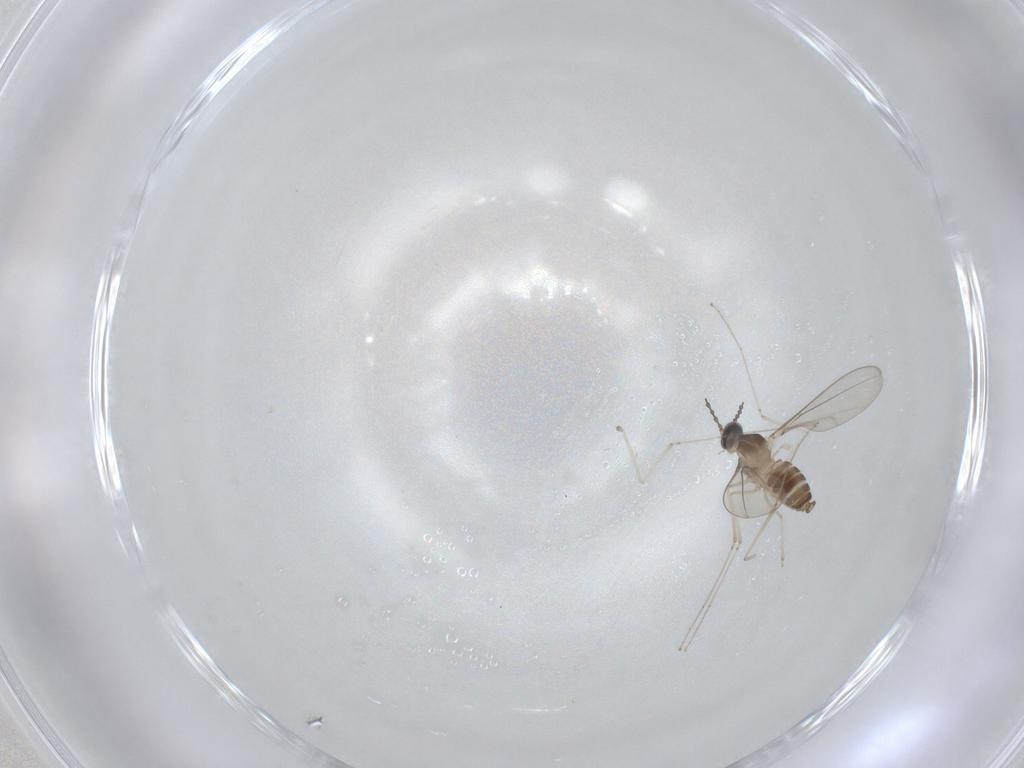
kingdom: Animalia
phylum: Arthropoda
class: Insecta
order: Diptera
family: Cecidomyiidae
